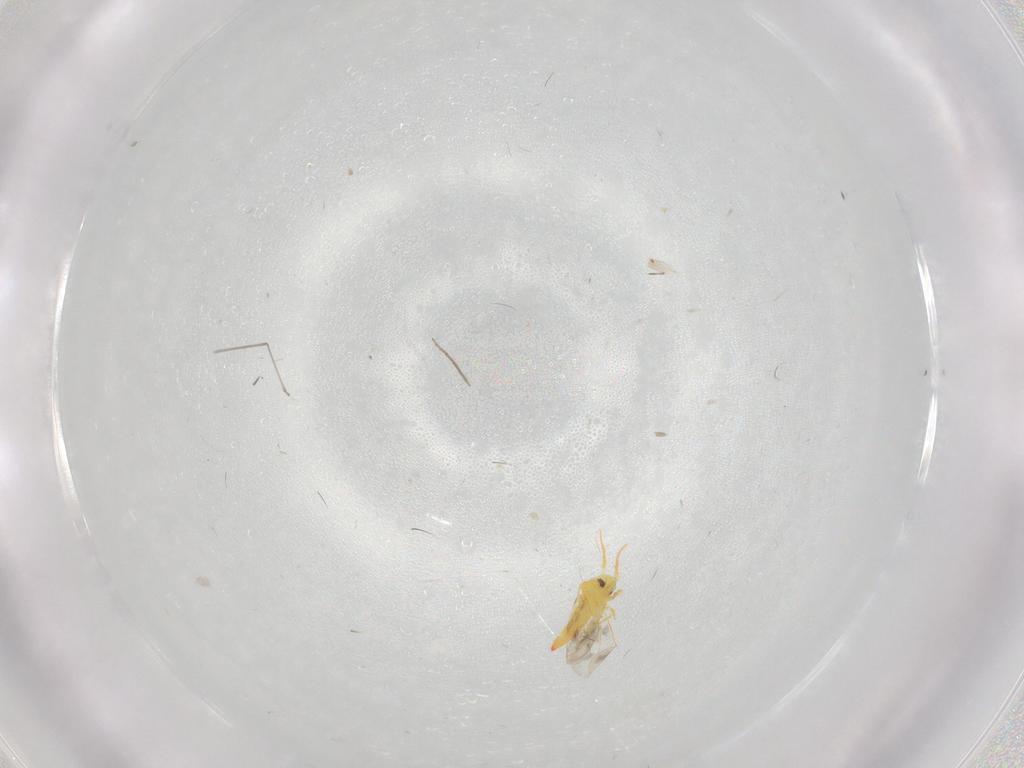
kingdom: Animalia
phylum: Arthropoda
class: Insecta
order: Hemiptera
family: Aleyrodidae
